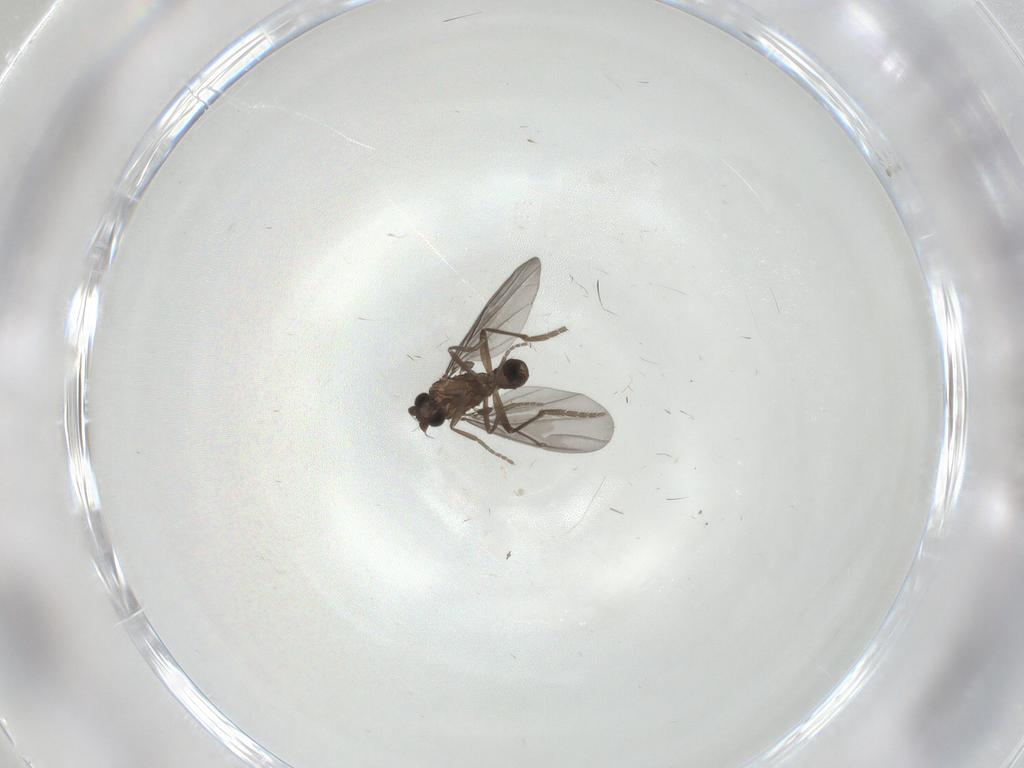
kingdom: Animalia
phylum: Arthropoda
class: Insecta
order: Diptera
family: Phoridae
